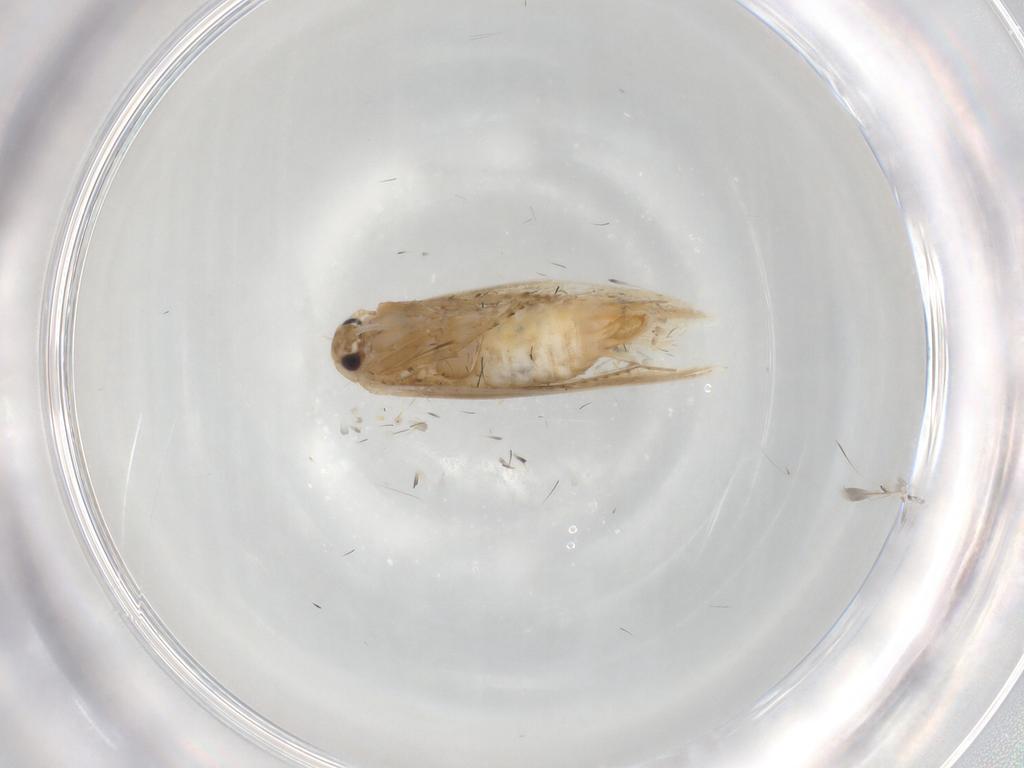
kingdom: Animalia
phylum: Arthropoda
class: Insecta
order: Lepidoptera
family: Bucculatricidae
